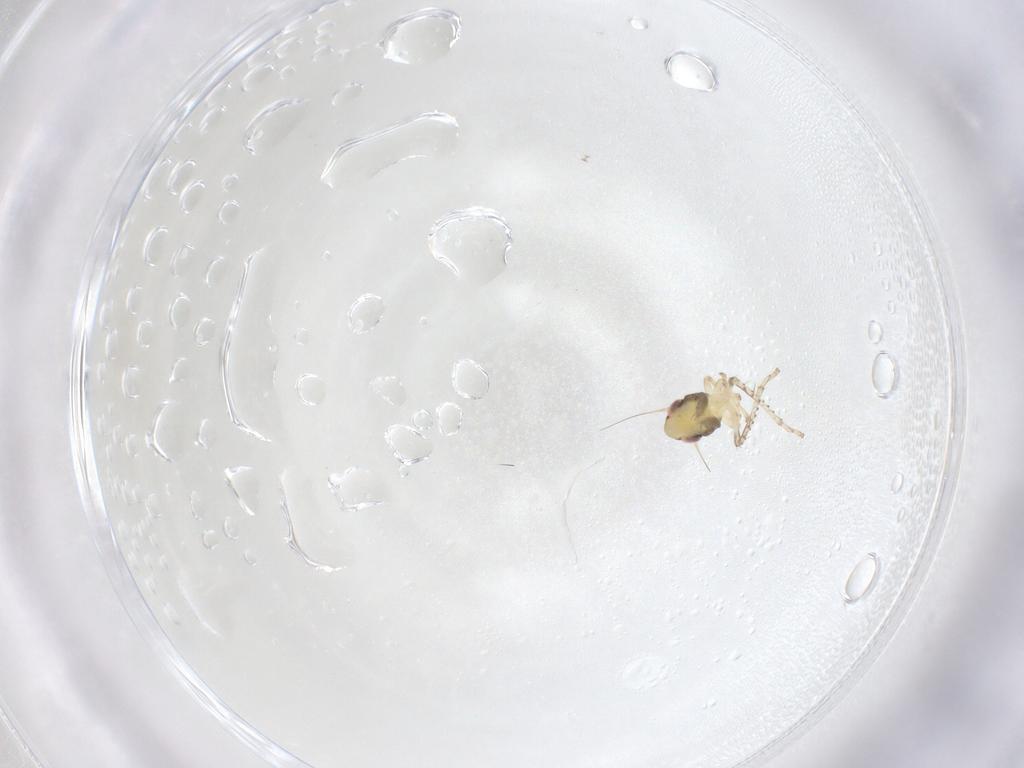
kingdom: Animalia
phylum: Arthropoda
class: Insecta
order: Hemiptera
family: Cicadellidae
